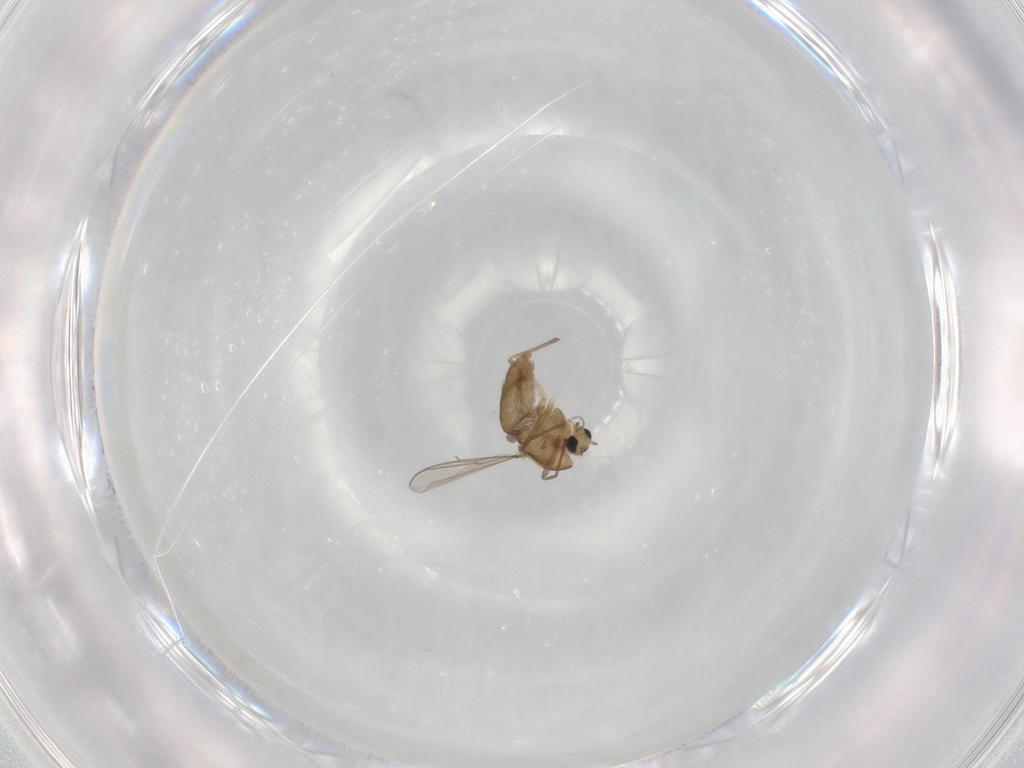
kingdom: Animalia
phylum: Arthropoda
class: Insecta
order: Diptera
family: Chironomidae
